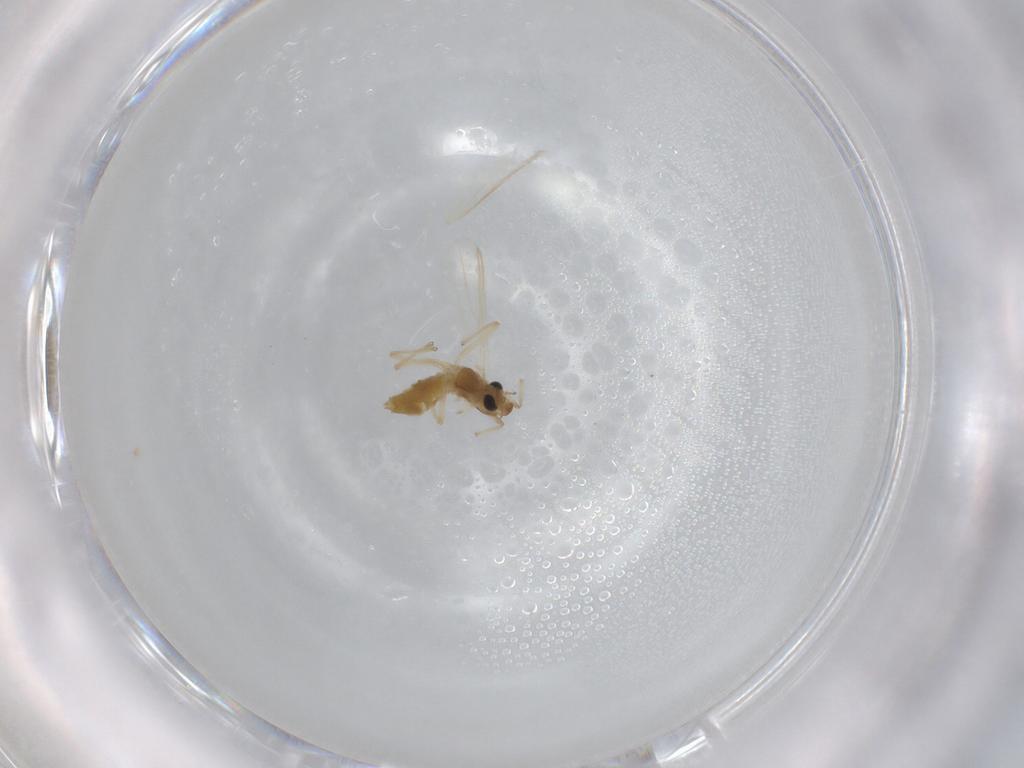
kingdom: Animalia
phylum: Arthropoda
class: Insecta
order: Diptera
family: Chironomidae
